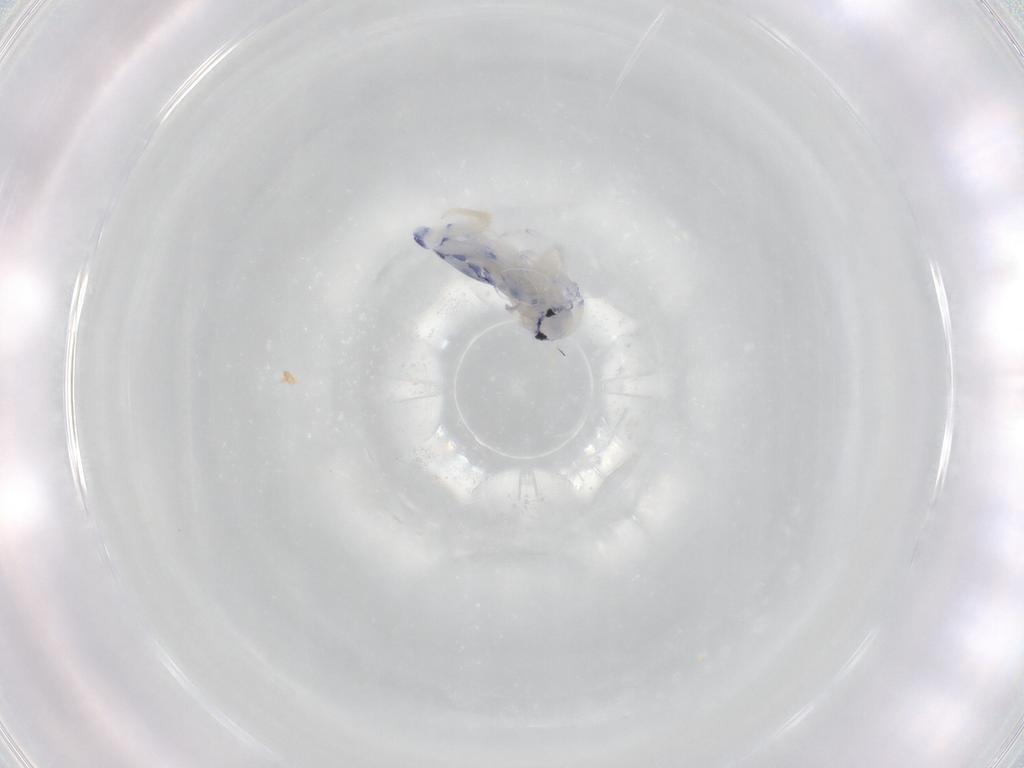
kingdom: Animalia
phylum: Arthropoda
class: Collembola
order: Entomobryomorpha
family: Entomobryidae
